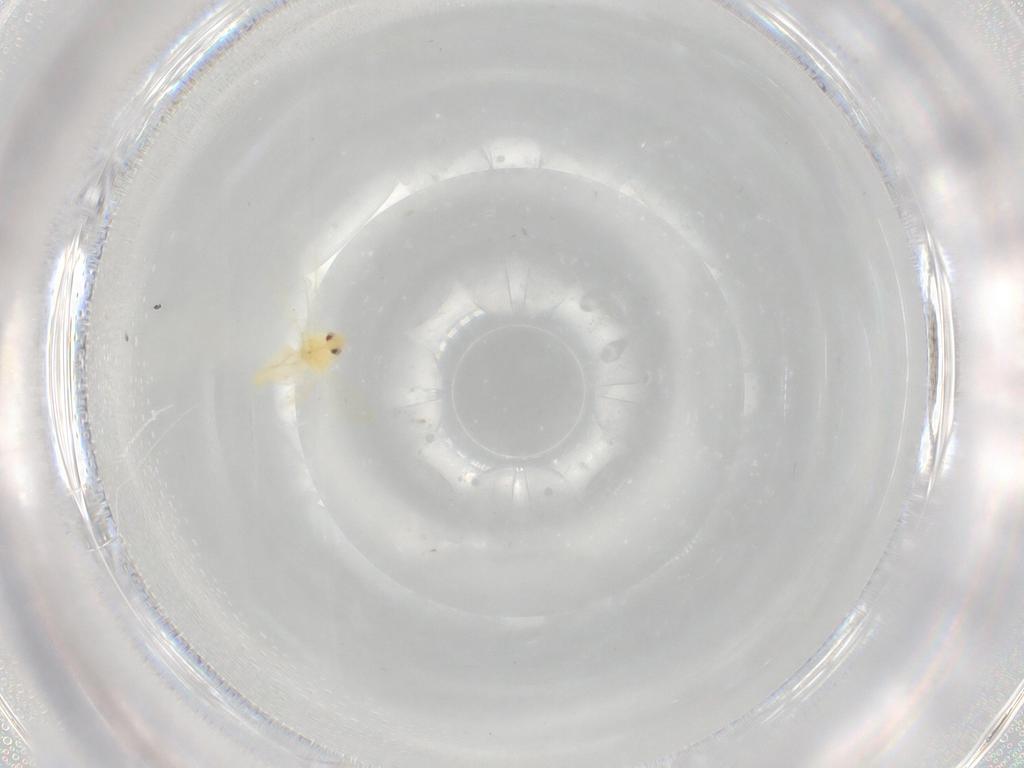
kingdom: Animalia
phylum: Arthropoda
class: Insecta
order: Hemiptera
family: Aleyrodidae
